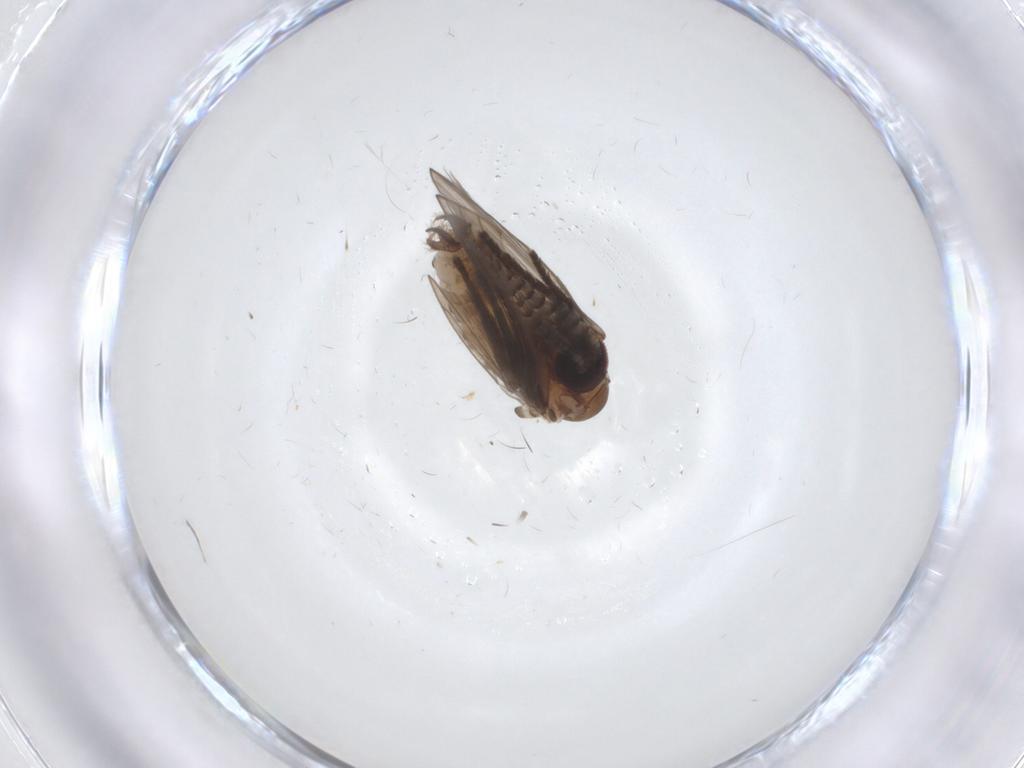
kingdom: Animalia
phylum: Arthropoda
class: Insecta
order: Diptera
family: Psychodidae
